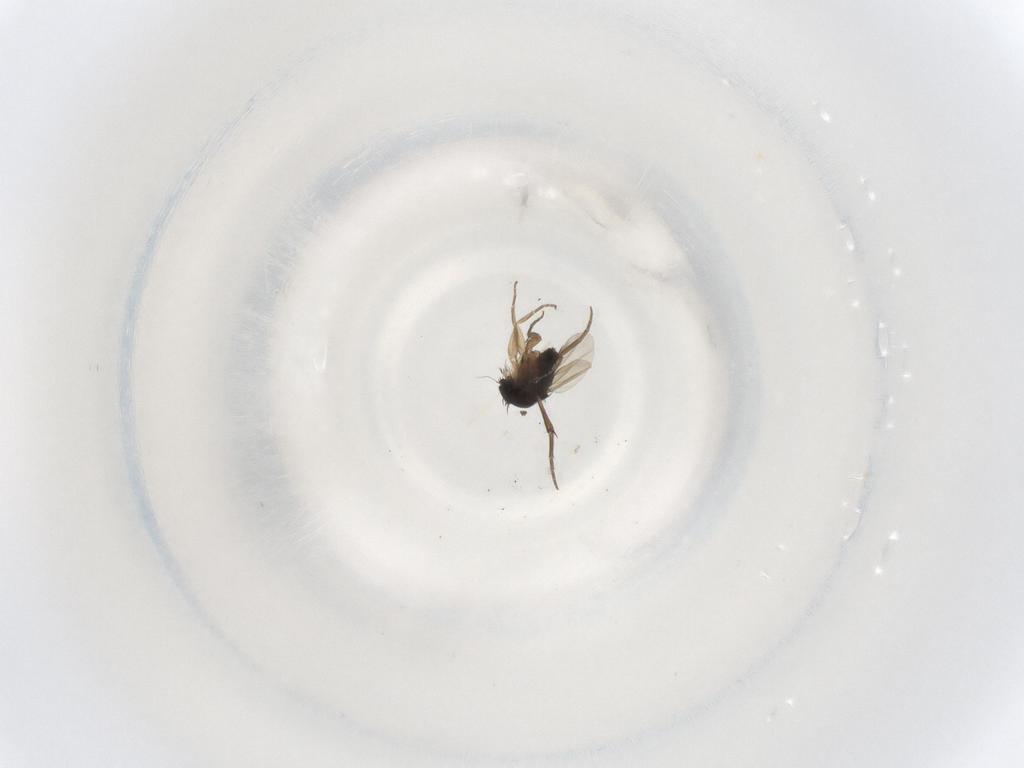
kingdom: Animalia
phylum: Arthropoda
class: Insecta
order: Diptera
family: Phoridae
